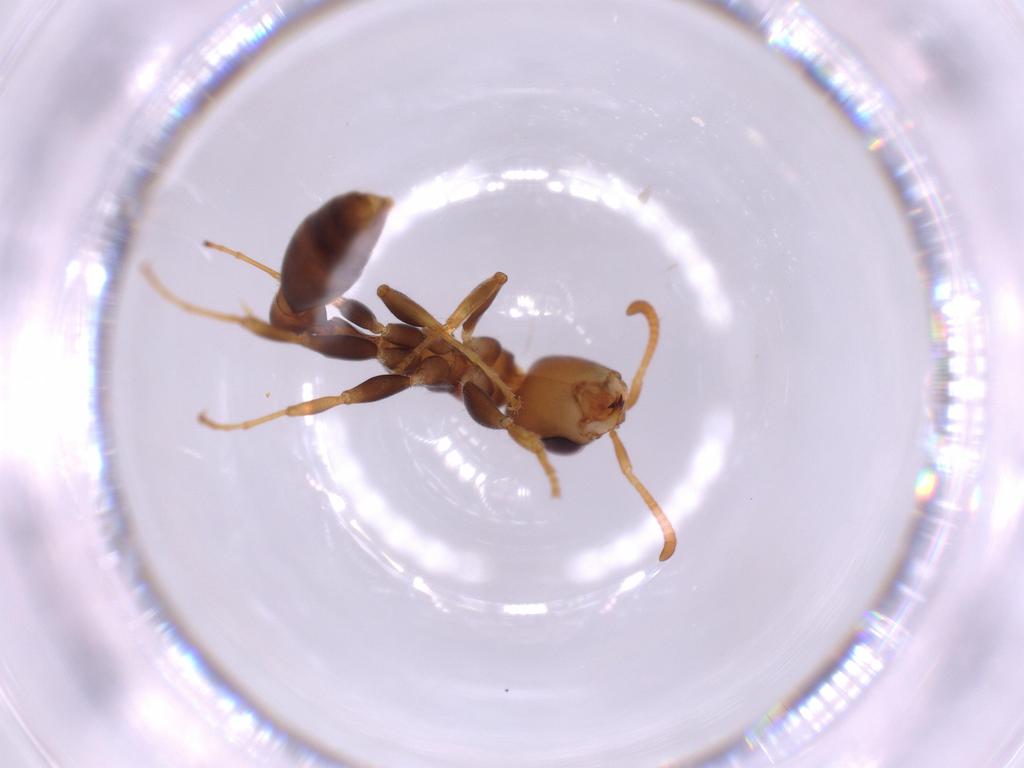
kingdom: Animalia
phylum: Arthropoda
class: Insecta
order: Hymenoptera
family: Formicidae
